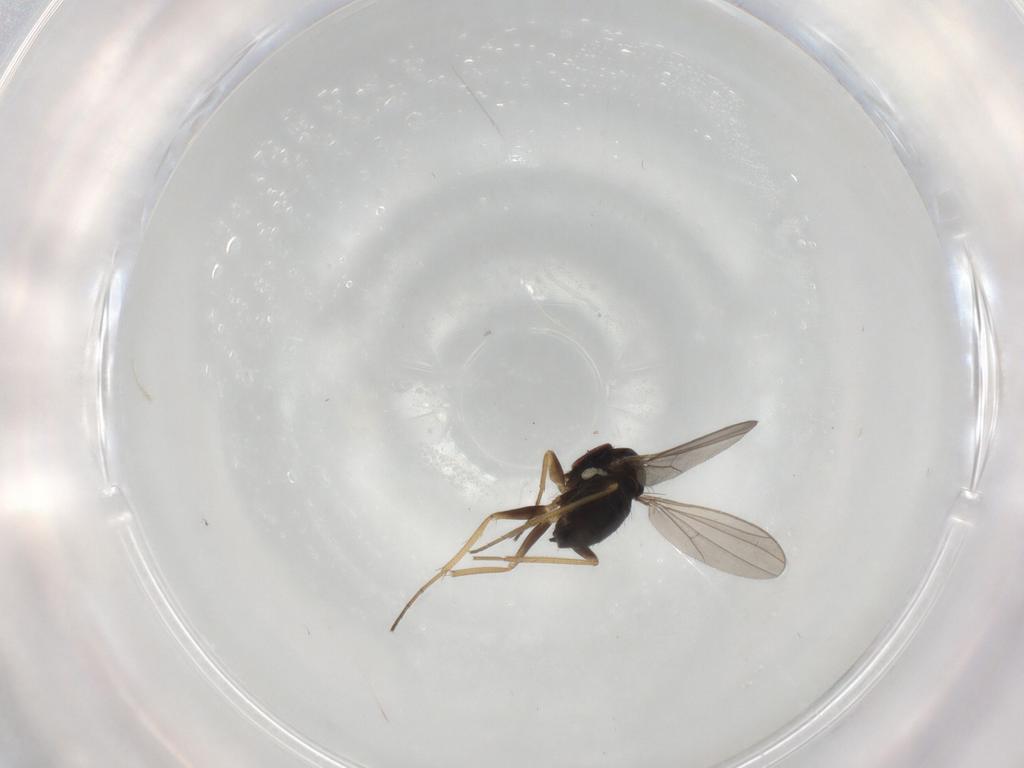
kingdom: Animalia
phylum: Arthropoda
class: Insecta
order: Diptera
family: Dolichopodidae
